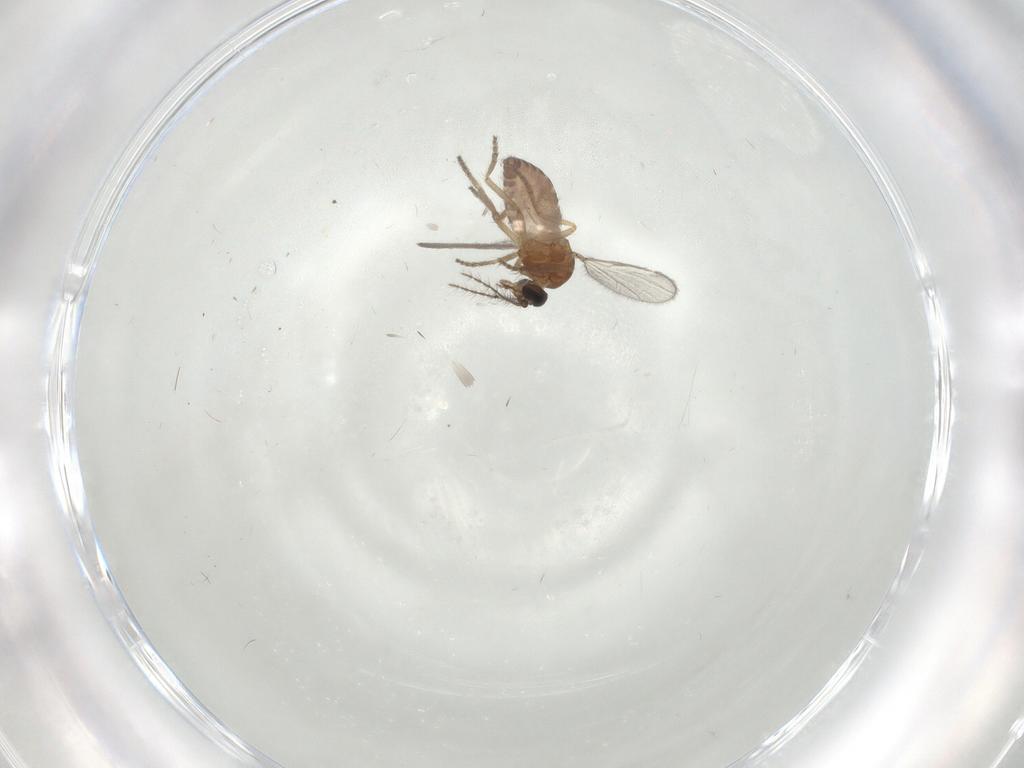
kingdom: Animalia
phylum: Arthropoda
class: Insecta
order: Diptera
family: Ceratopogonidae
